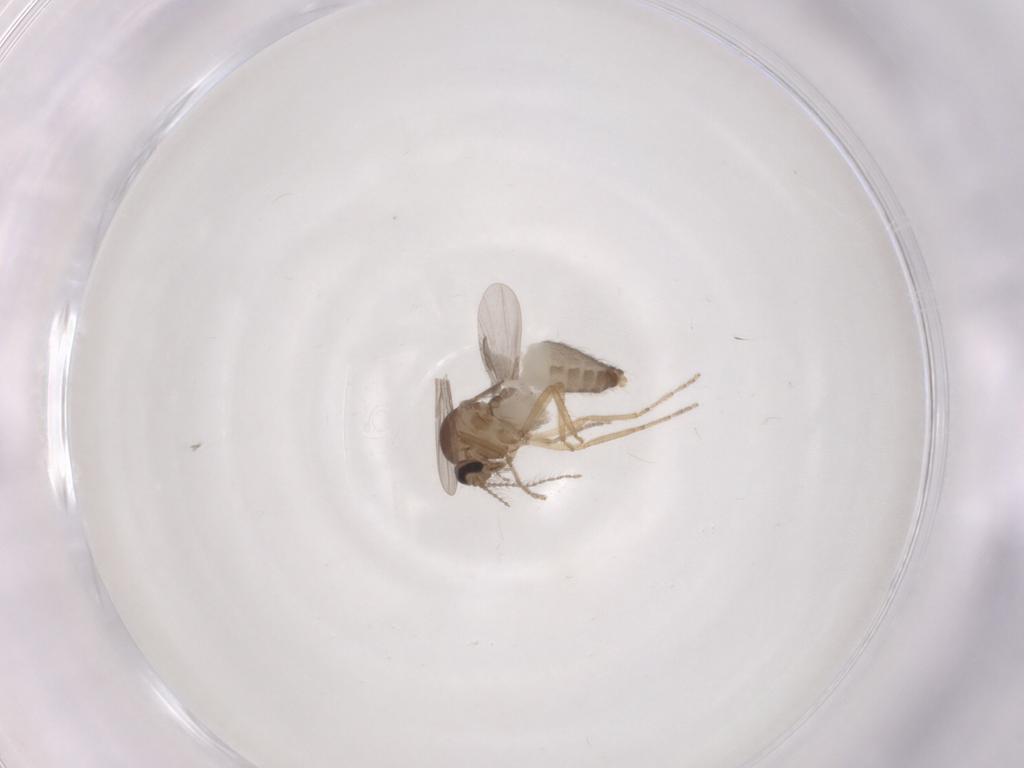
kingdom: Animalia
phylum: Arthropoda
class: Insecta
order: Diptera
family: Ceratopogonidae
